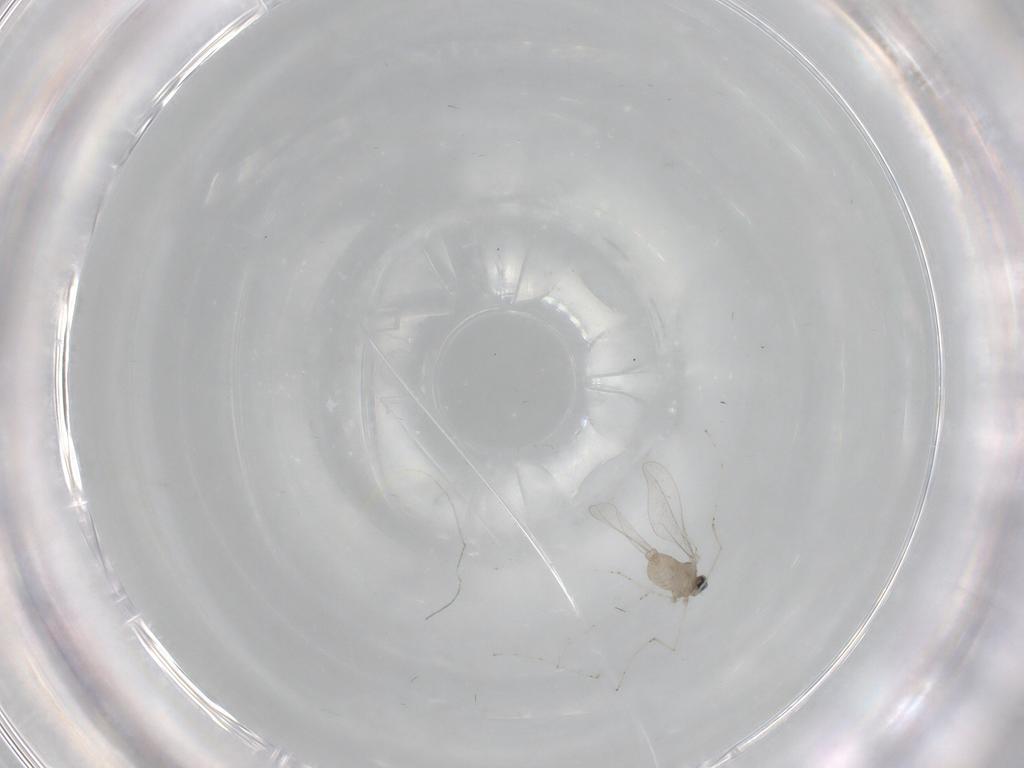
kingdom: Animalia
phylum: Arthropoda
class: Insecta
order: Diptera
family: Cecidomyiidae
